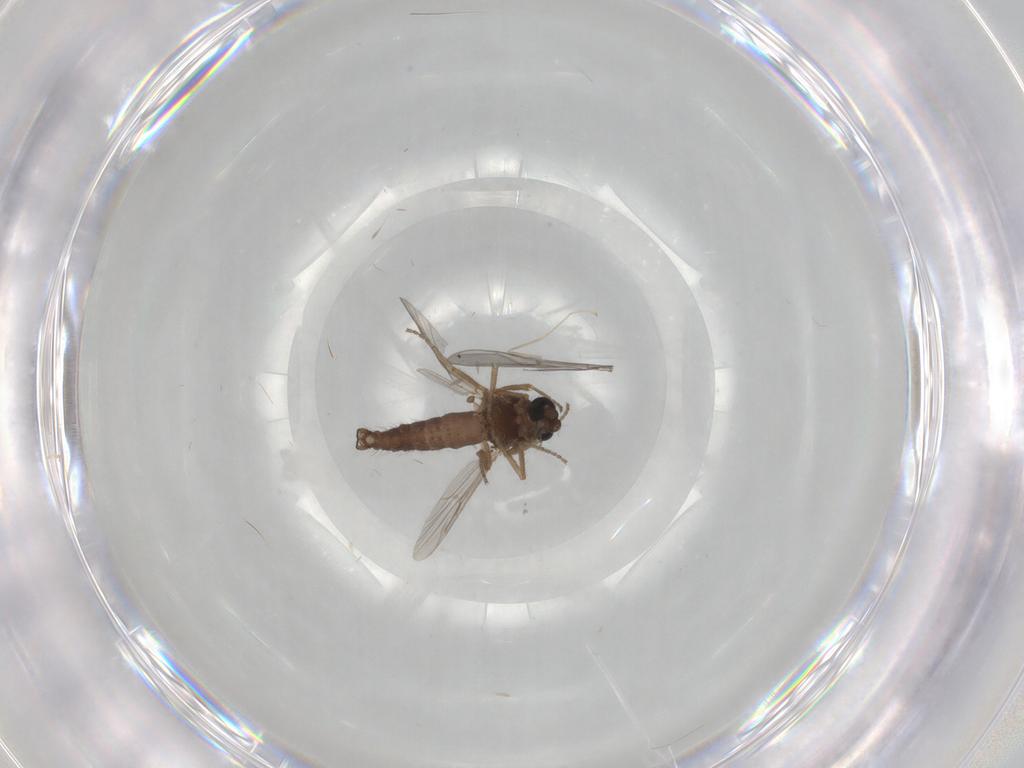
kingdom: Animalia
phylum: Arthropoda
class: Insecta
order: Diptera
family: Ceratopogonidae
